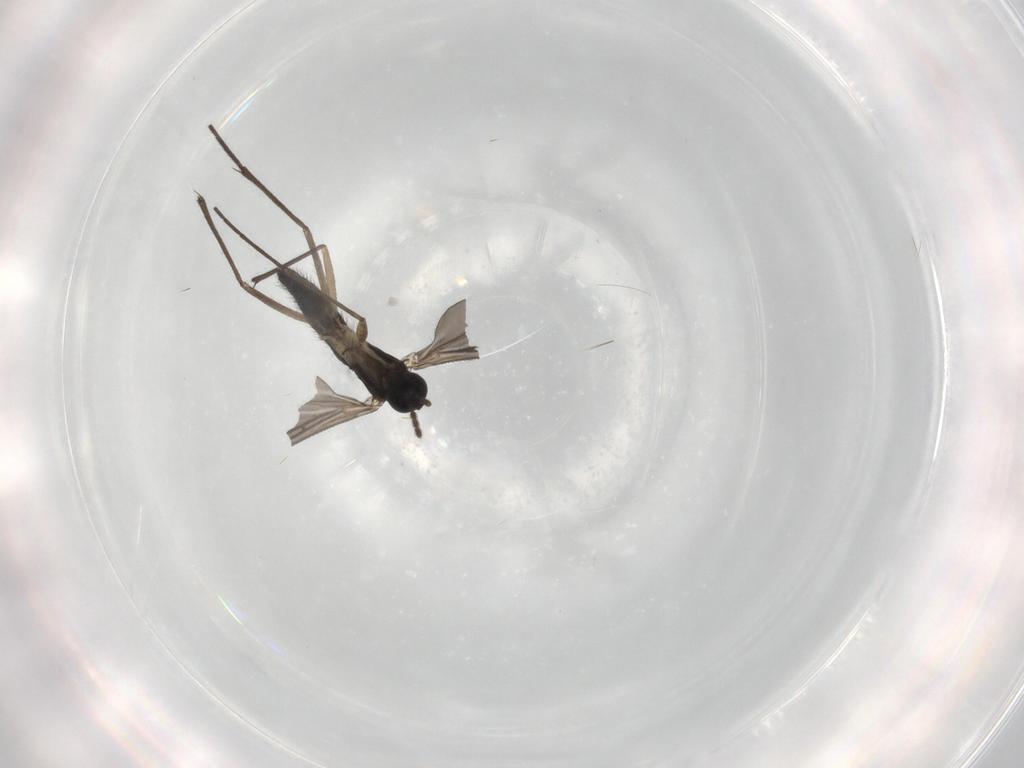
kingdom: Animalia
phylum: Arthropoda
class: Insecta
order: Diptera
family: Sciaridae
